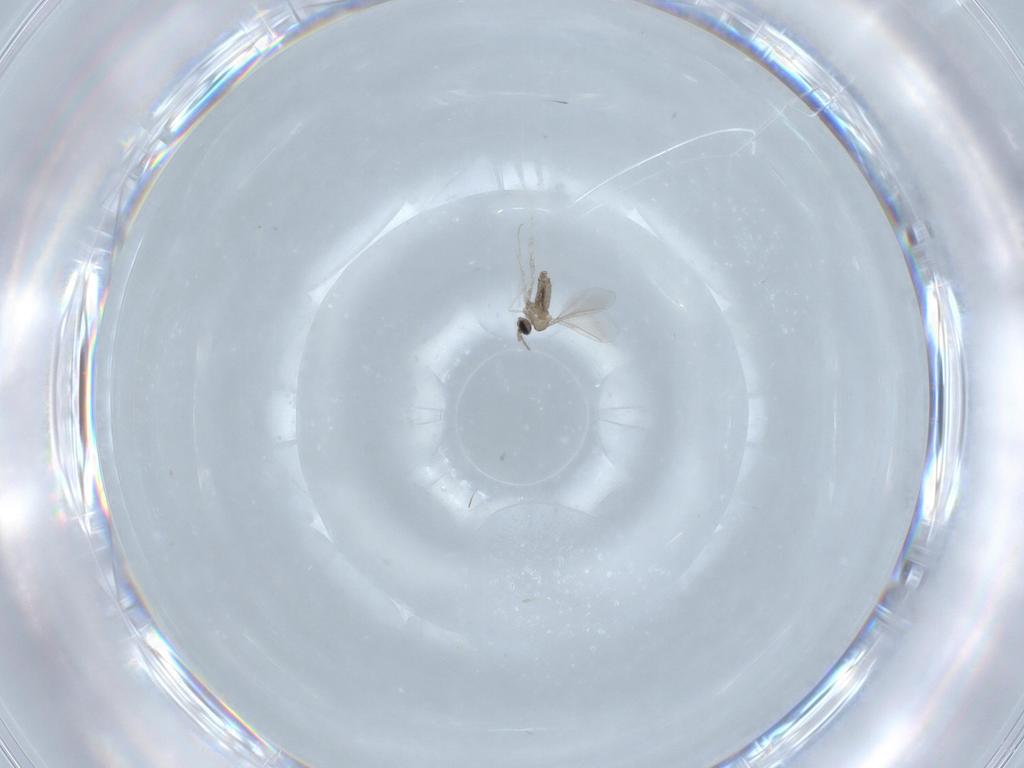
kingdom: Animalia
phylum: Arthropoda
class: Insecta
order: Diptera
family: Cecidomyiidae
